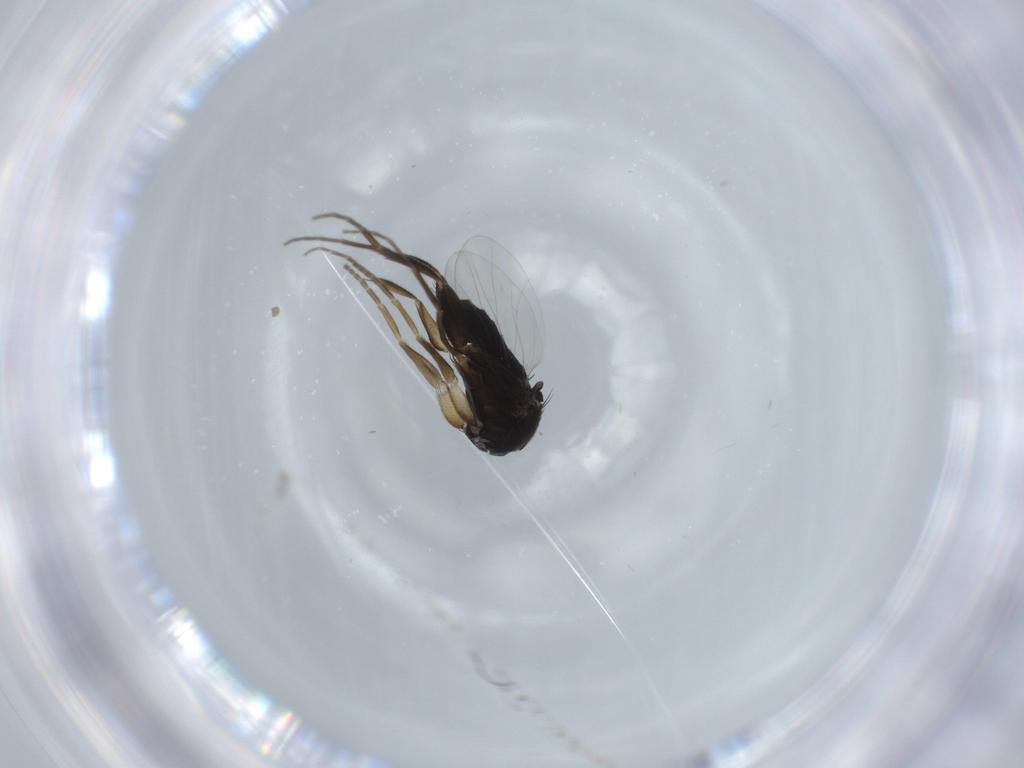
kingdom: Animalia
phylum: Arthropoda
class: Insecta
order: Diptera
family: Phoridae
